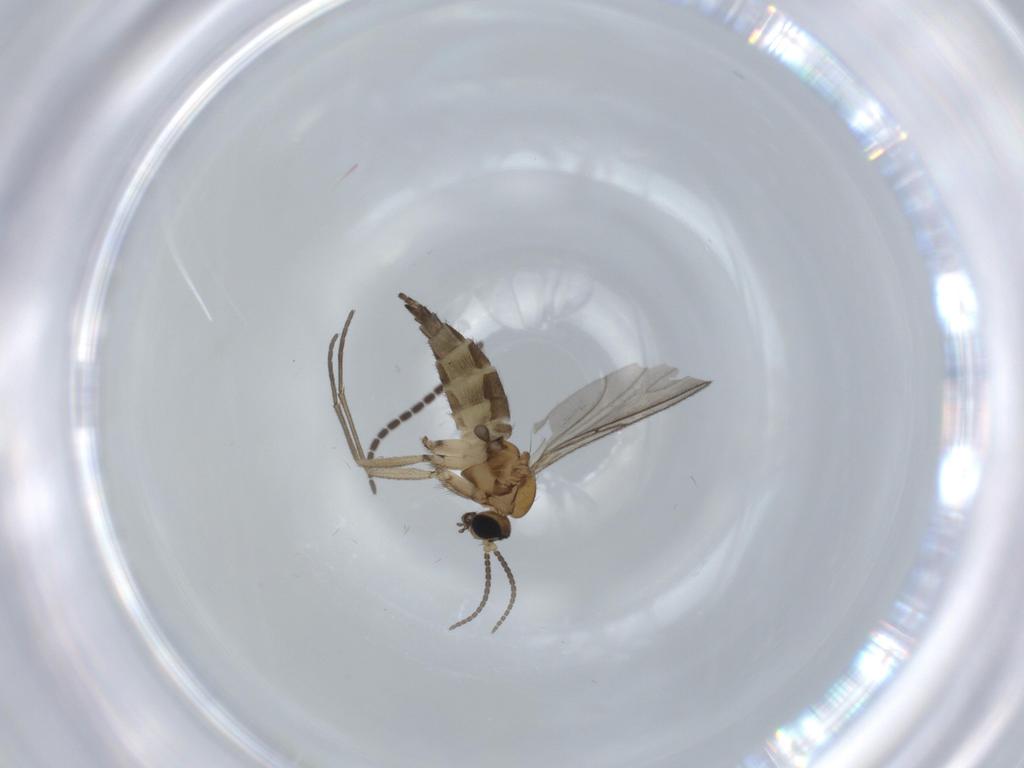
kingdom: Animalia
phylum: Arthropoda
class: Insecta
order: Diptera
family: Sciaridae
